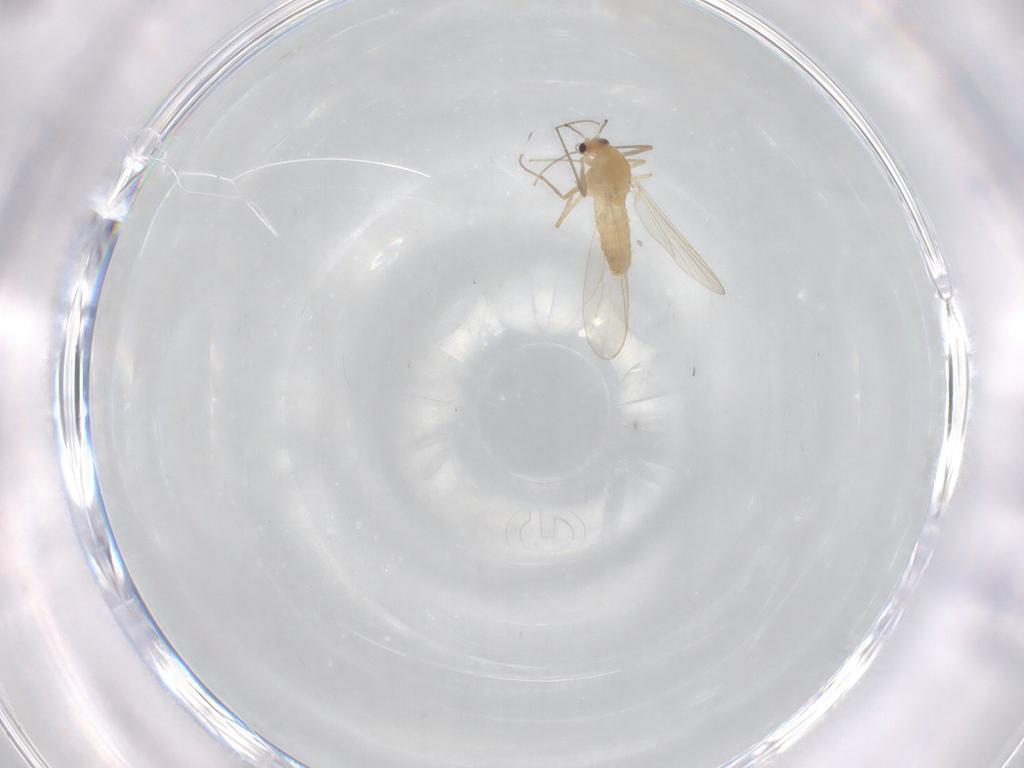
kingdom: Animalia
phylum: Arthropoda
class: Insecta
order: Diptera
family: Chironomidae
